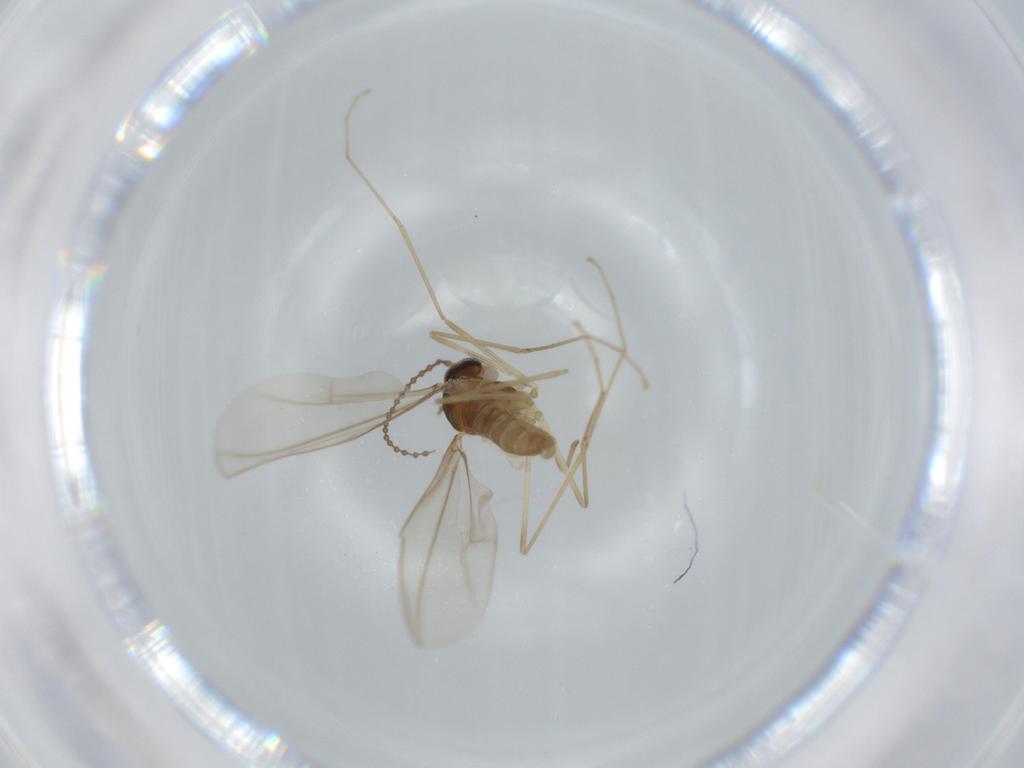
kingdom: Animalia
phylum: Arthropoda
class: Insecta
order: Diptera
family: Cecidomyiidae
